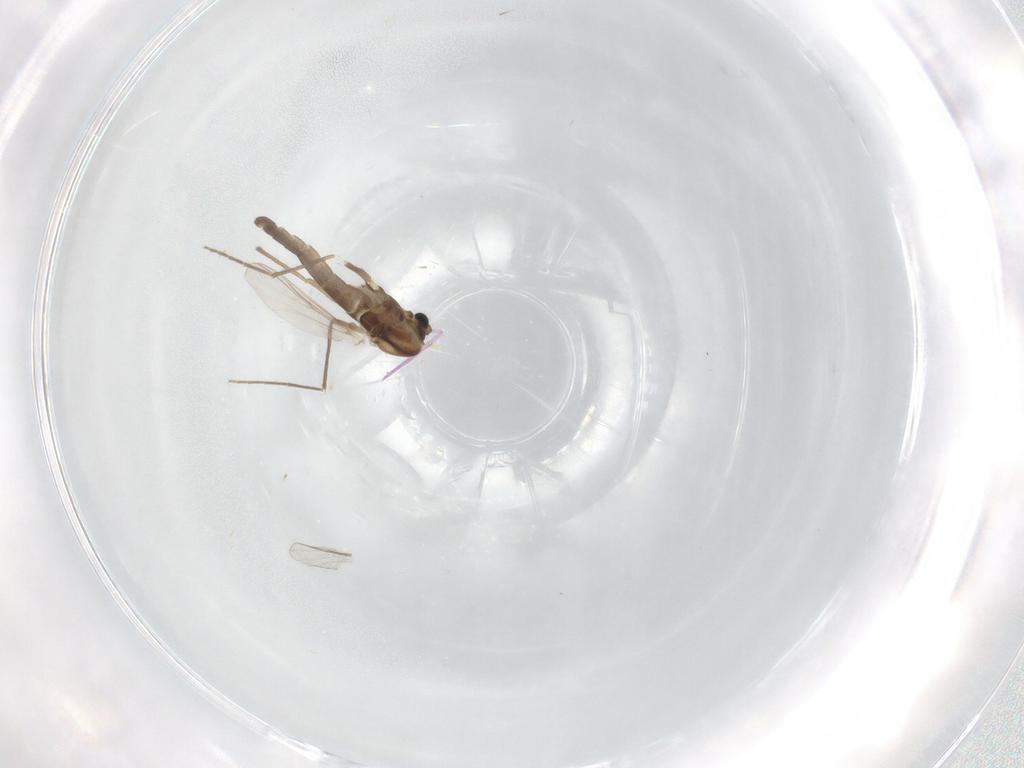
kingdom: Animalia
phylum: Arthropoda
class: Insecta
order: Diptera
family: Chironomidae
